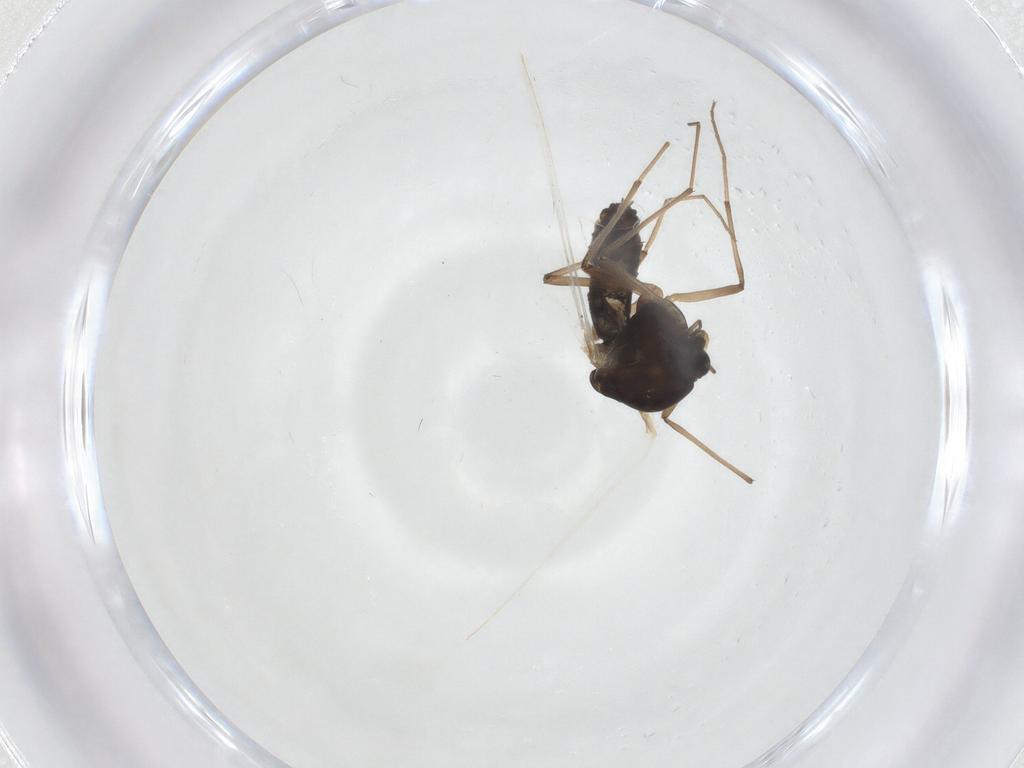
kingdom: Animalia
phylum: Arthropoda
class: Insecta
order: Diptera
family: Chironomidae
